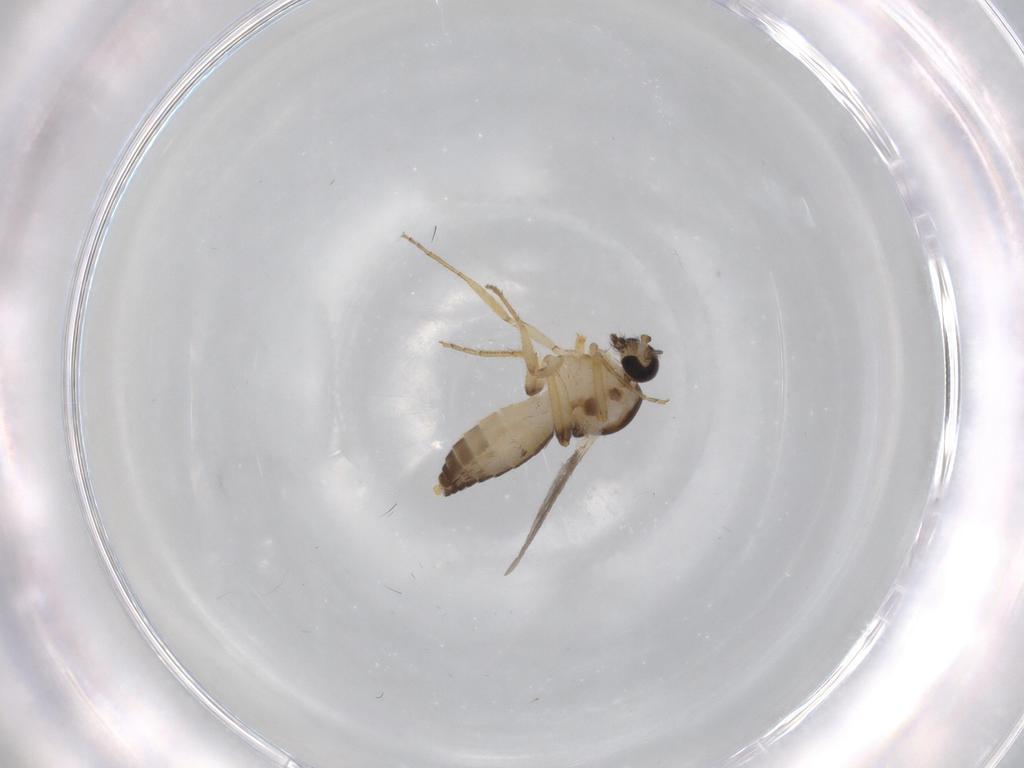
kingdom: Animalia
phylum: Arthropoda
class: Insecta
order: Diptera
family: Ceratopogonidae
